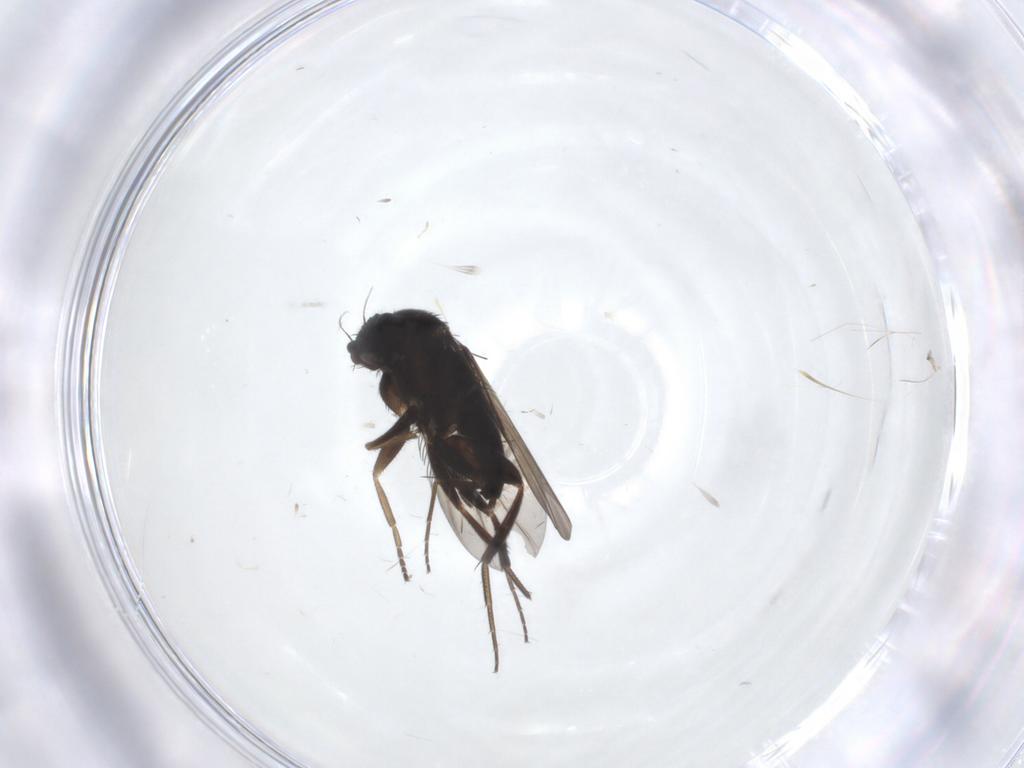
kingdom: Animalia
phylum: Arthropoda
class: Insecta
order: Diptera
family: Phoridae
